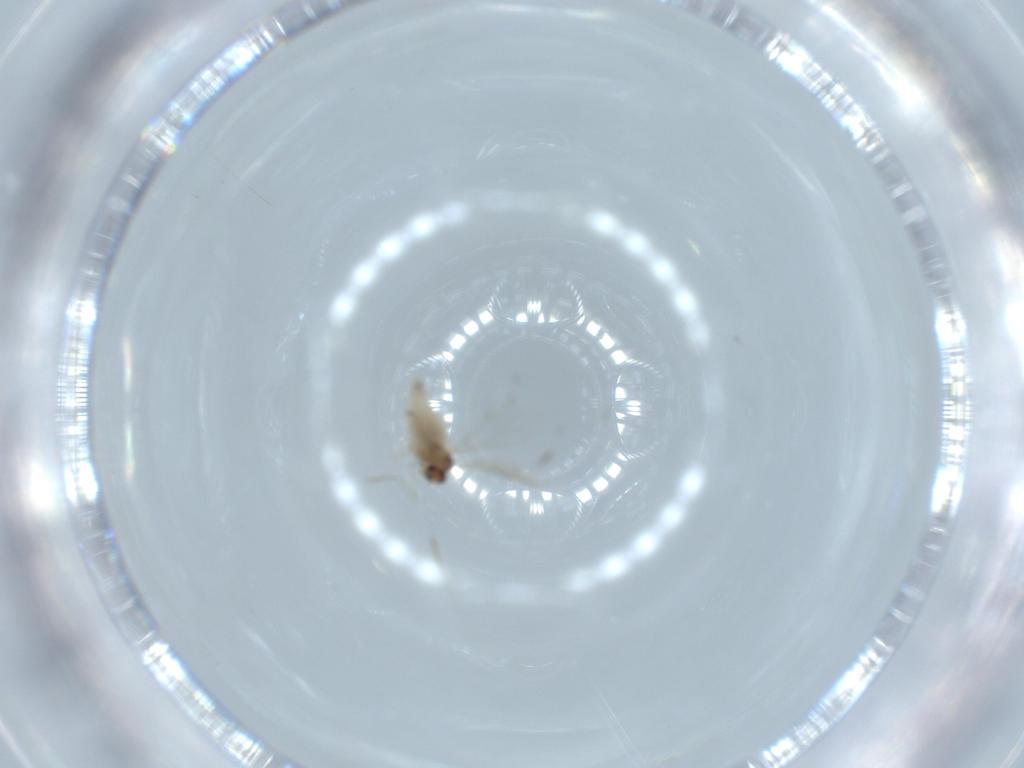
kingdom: Animalia
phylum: Arthropoda
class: Insecta
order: Diptera
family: Cecidomyiidae
